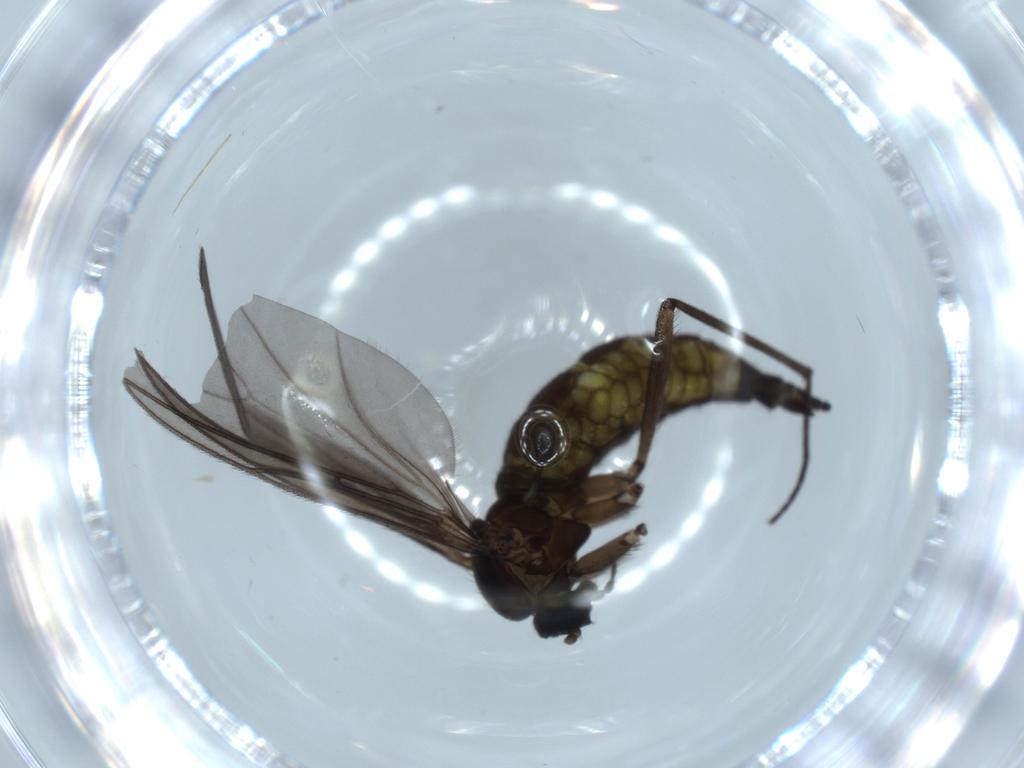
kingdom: Animalia
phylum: Arthropoda
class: Insecta
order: Diptera
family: Sciaridae
